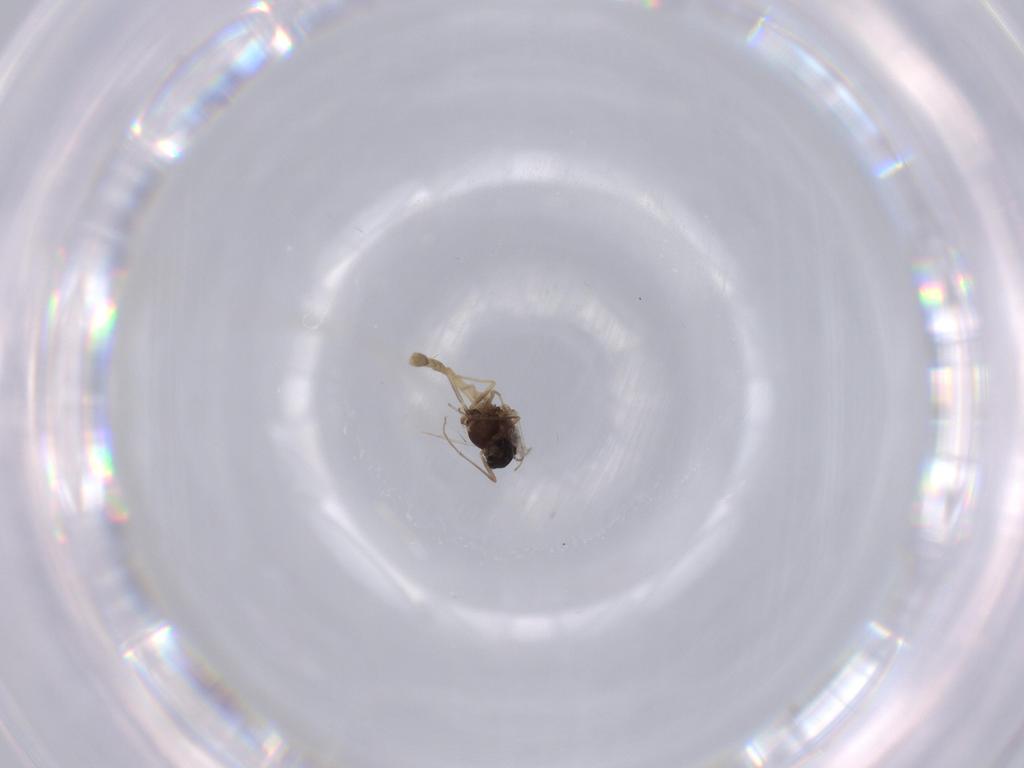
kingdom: Animalia
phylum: Arthropoda
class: Insecta
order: Diptera
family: Chironomidae
